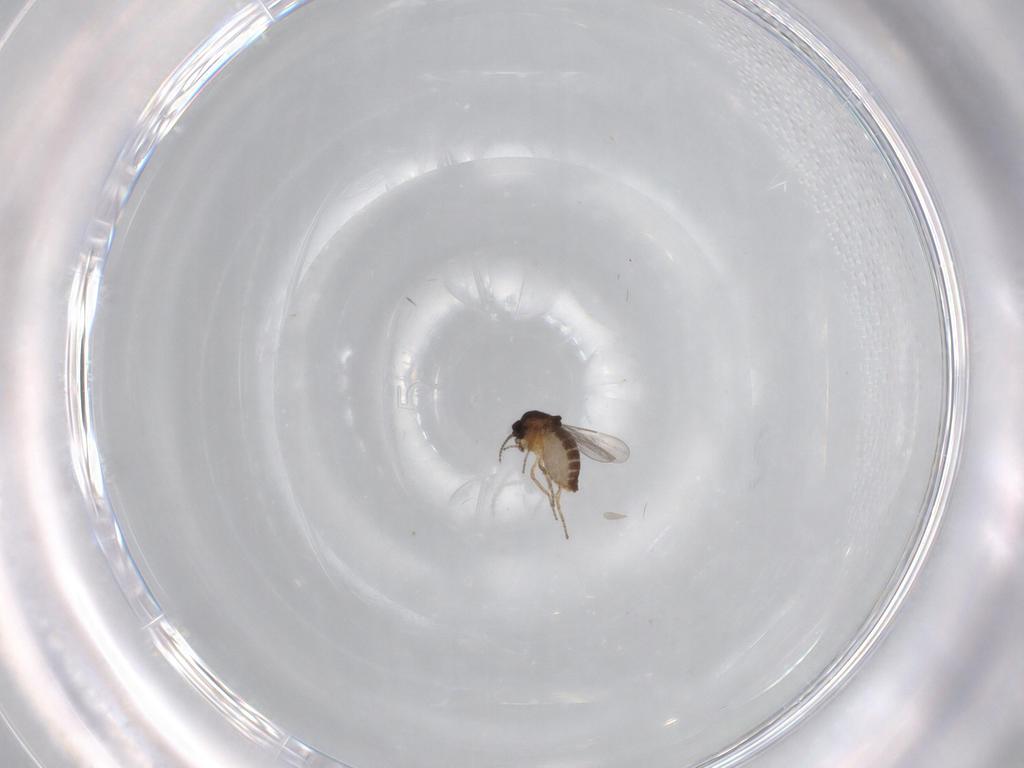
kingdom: Animalia
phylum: Arthropoda
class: Insecta
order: Diptera
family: Ceratopogonidae
